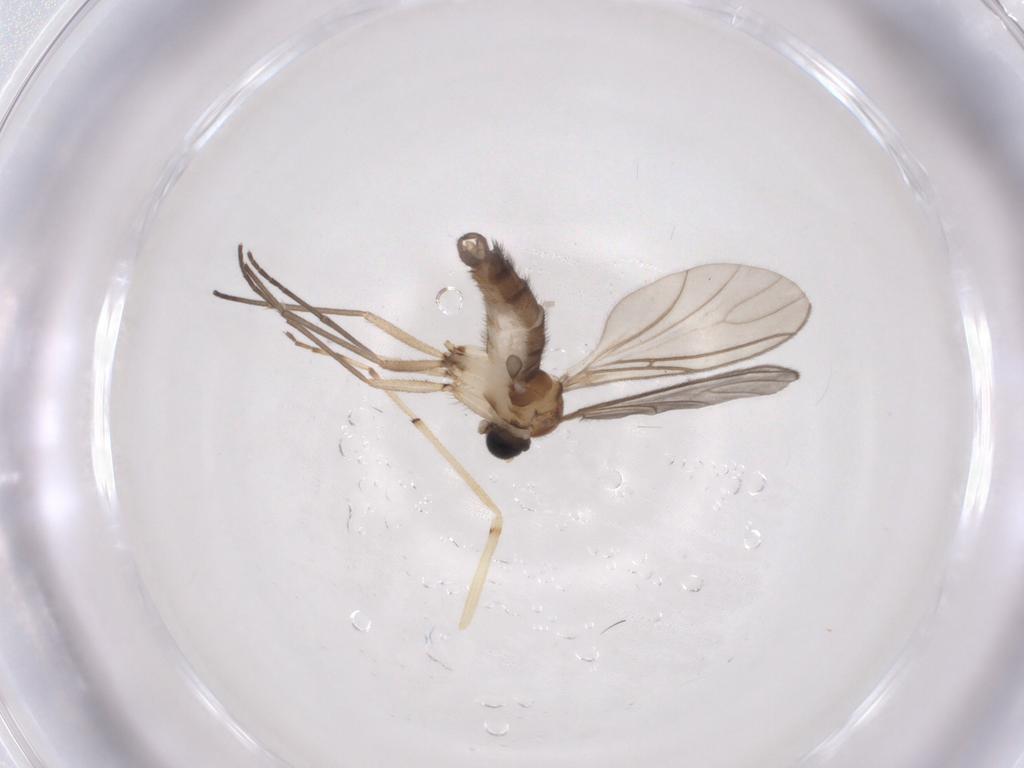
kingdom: Animalia
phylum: Arthropoda
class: Insecta
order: Diptera
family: Sciaridae
